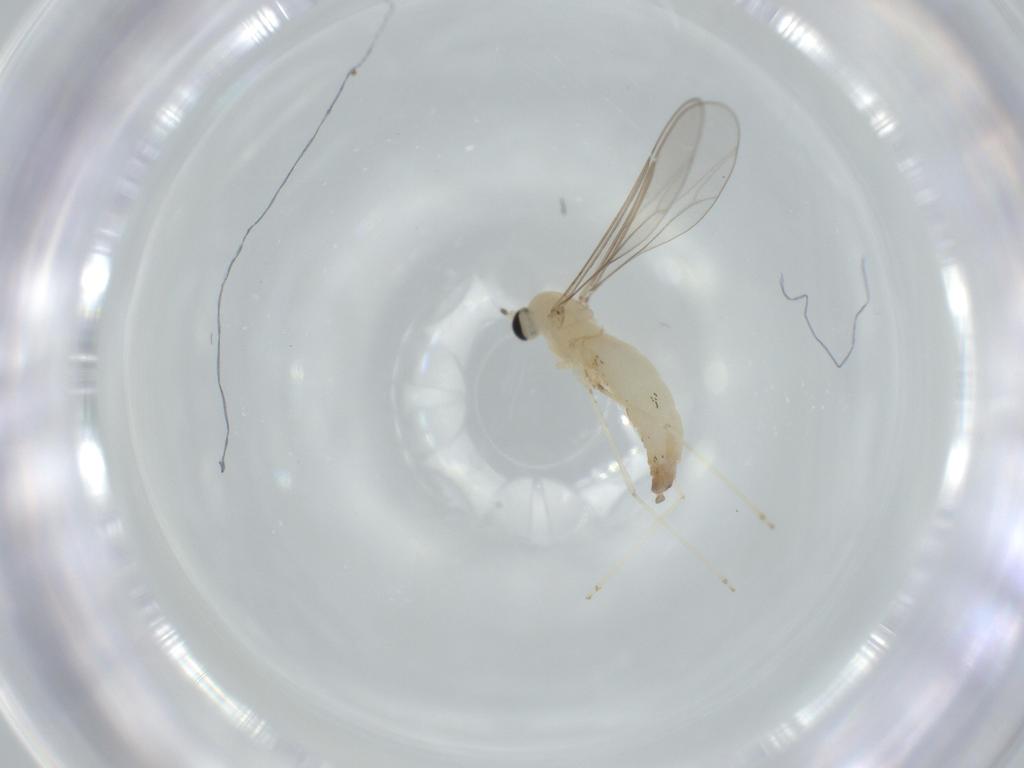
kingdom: Animalia
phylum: Arthropoda
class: Insecta
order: Diptera
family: Cecidomyiidae
